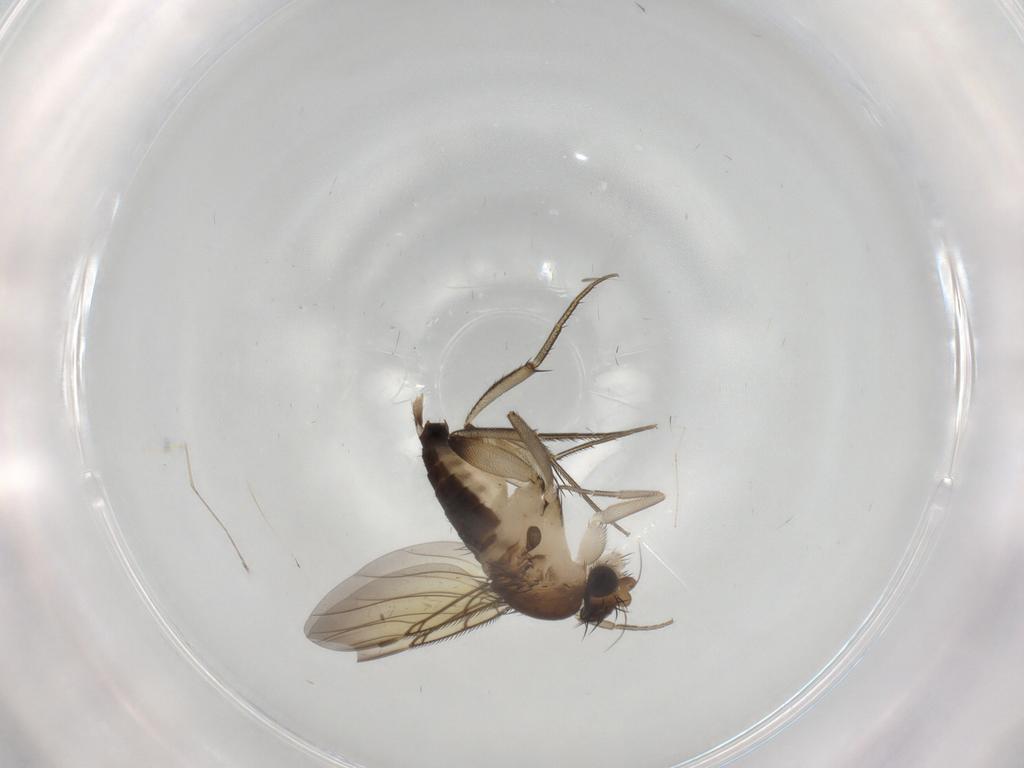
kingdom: Animalia
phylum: Arthropoda
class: Insecta
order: Diptera
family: Phoridae
